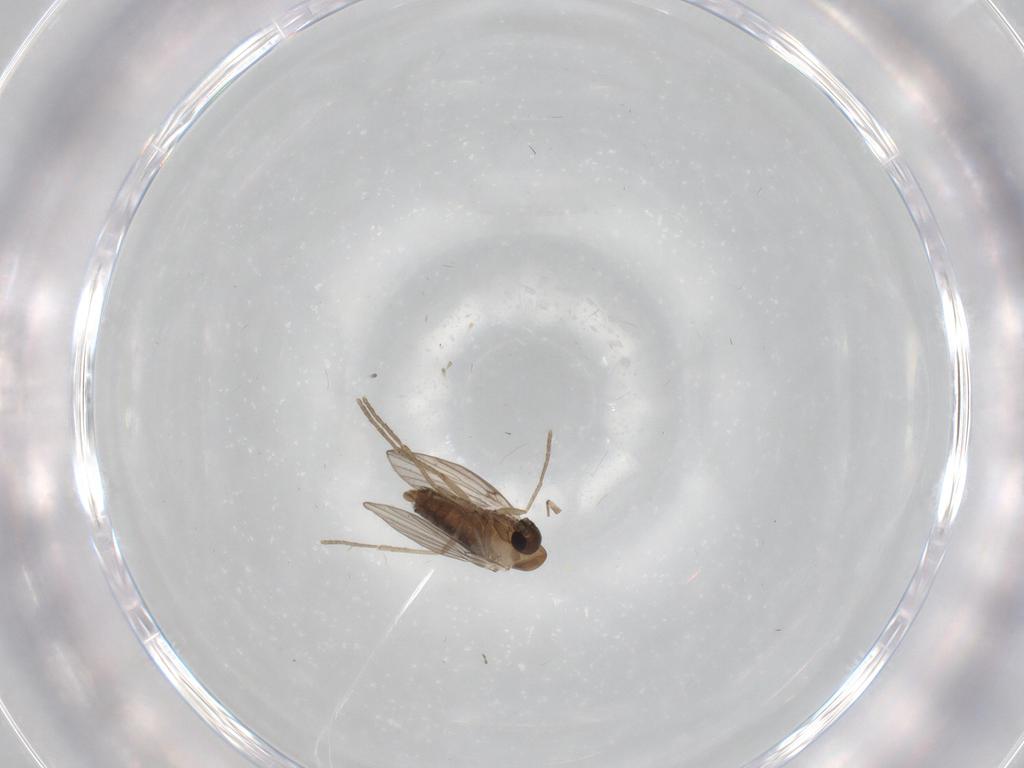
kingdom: Animalia
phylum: Arthropoda
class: Insecta
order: Diptera
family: Chironomidae
